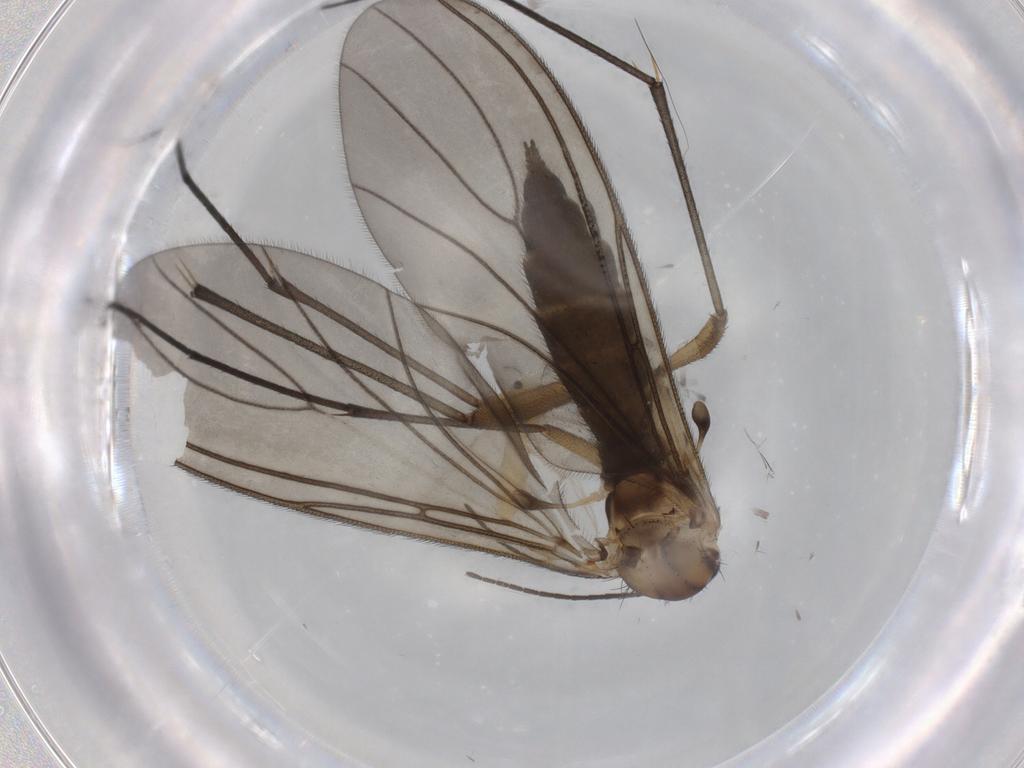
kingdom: Animalia
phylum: Arthropoda
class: Insecta
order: Diptera
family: Chironomidae
